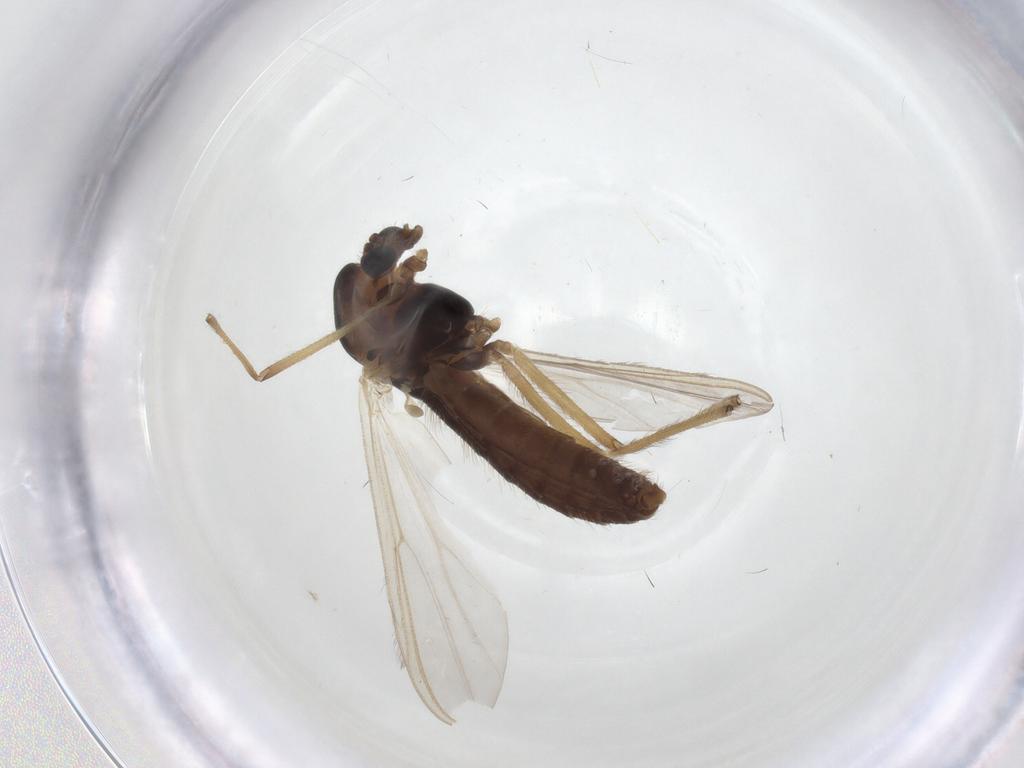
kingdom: Animalia
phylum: Arthropoda
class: Insecta
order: Diptera
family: Chironomidae
